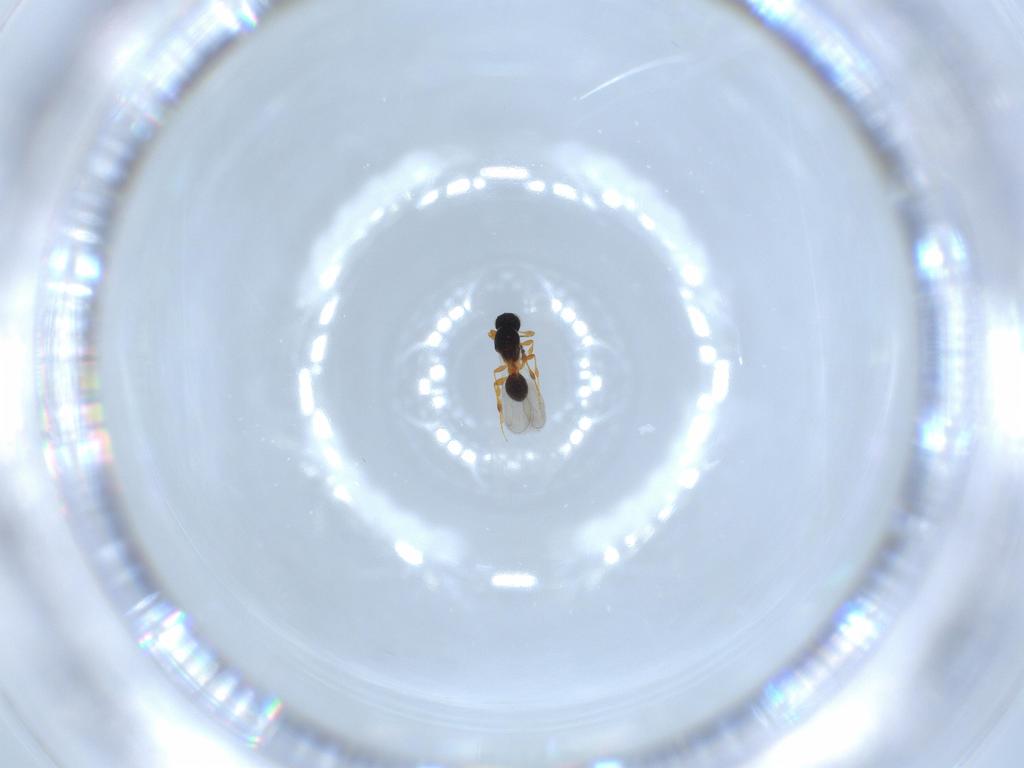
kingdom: Animalia
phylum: Arthropoda
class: Insecta
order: Hymenoptera
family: Formicidae
